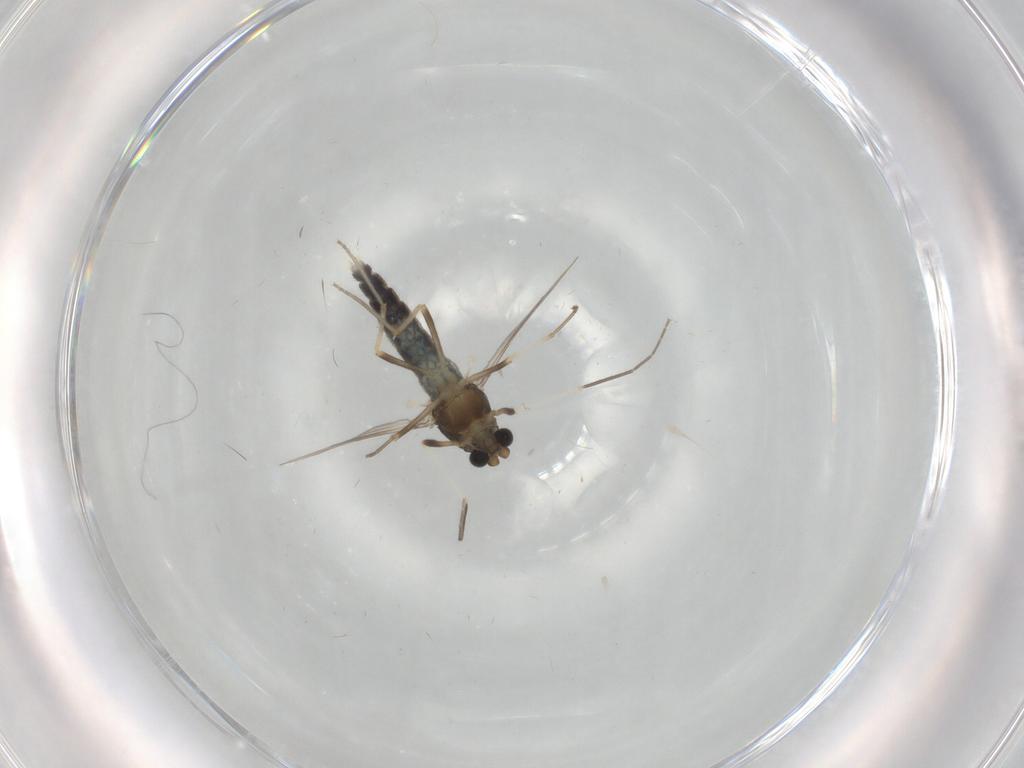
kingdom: Animalia
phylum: Arthropoda
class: Insecta
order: Diptera
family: Chironomidae
